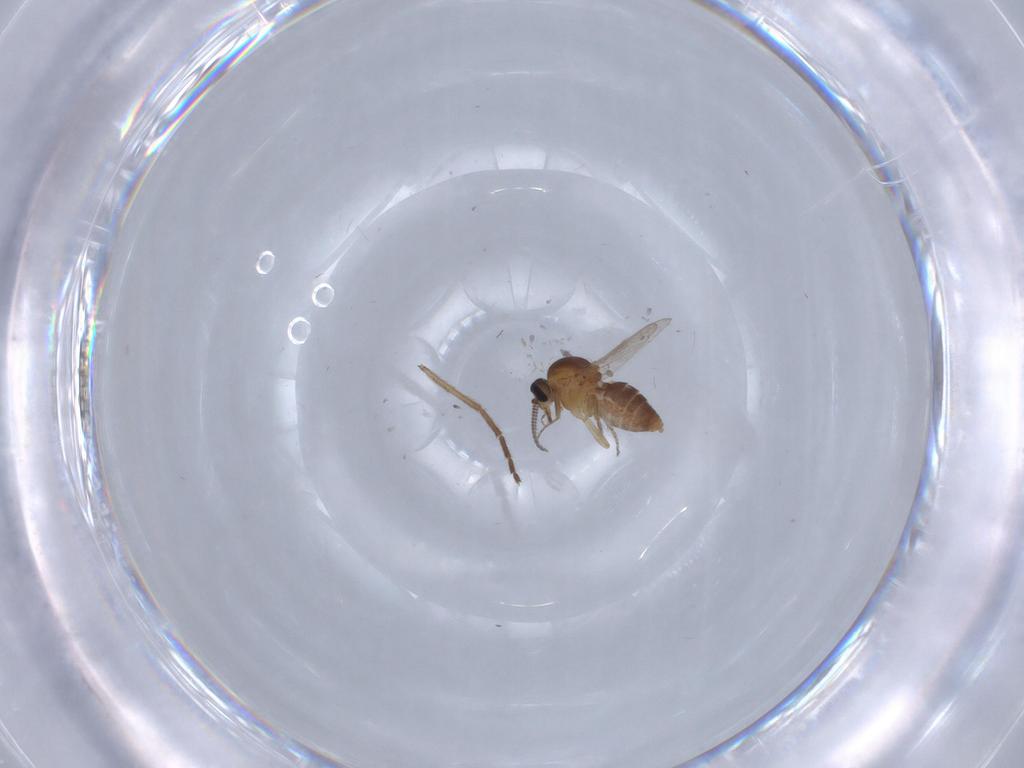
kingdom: Animalia
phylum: Arthropoda
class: Insecta
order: Diptera
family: Ceratopogonidae
